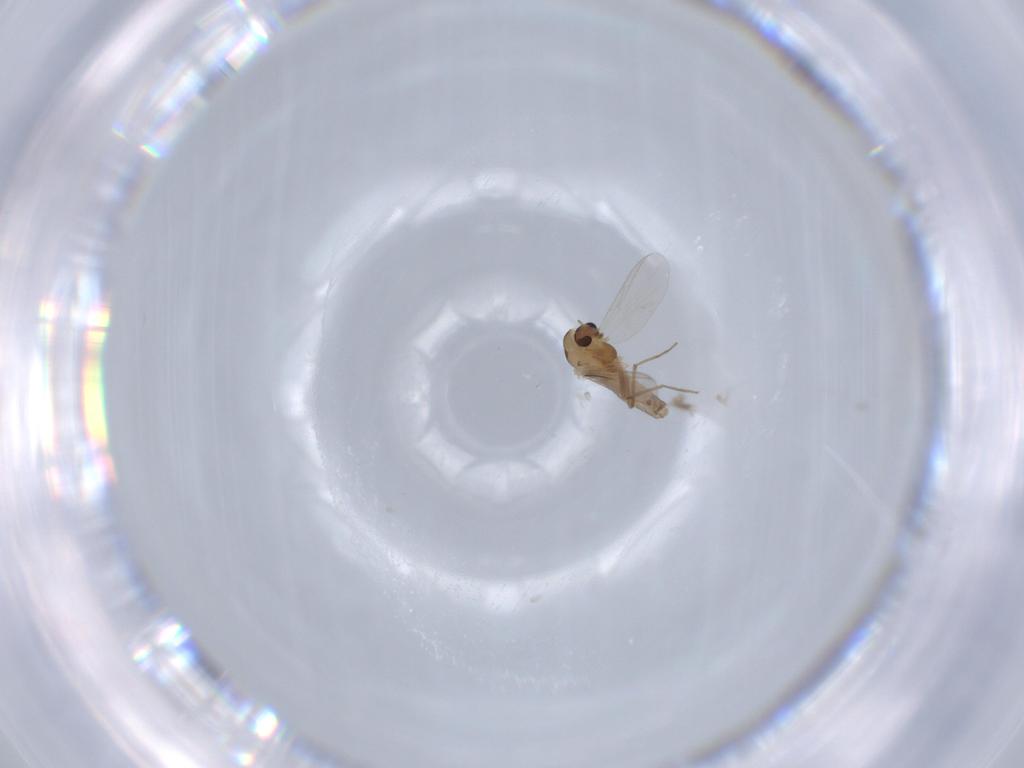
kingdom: Animalia
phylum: Arthropoda
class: Insecta
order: Diptera
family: Chironomidae
